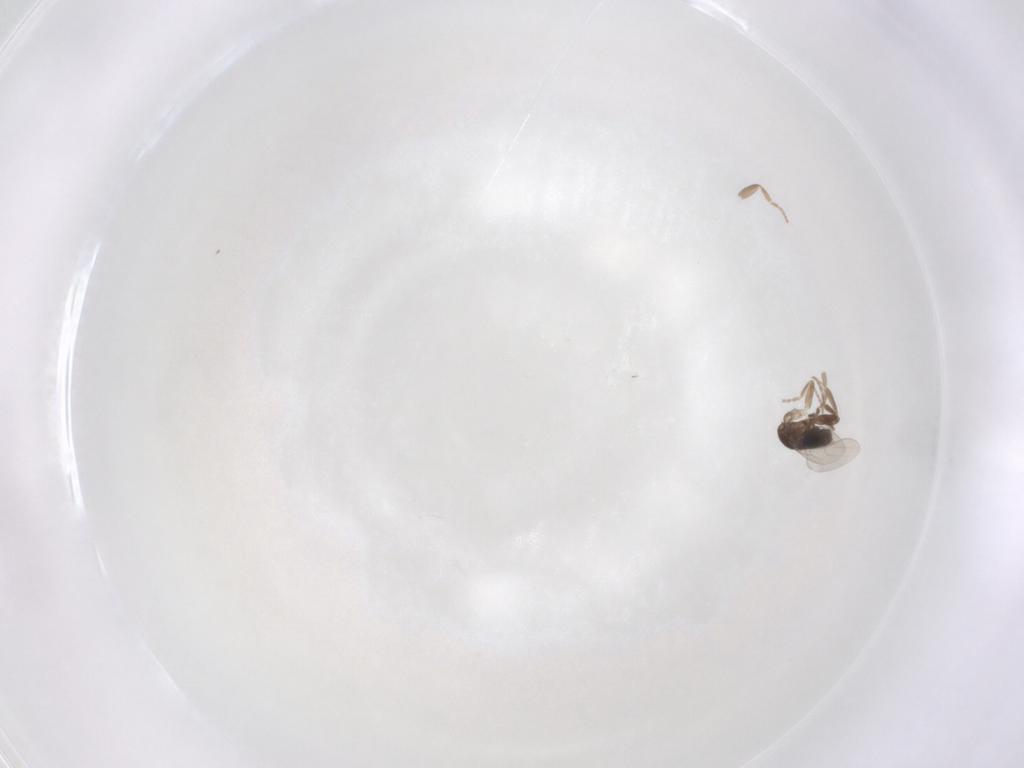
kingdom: Animalia
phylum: Arthropoda
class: Insecta
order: Diptera
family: Phoridae
